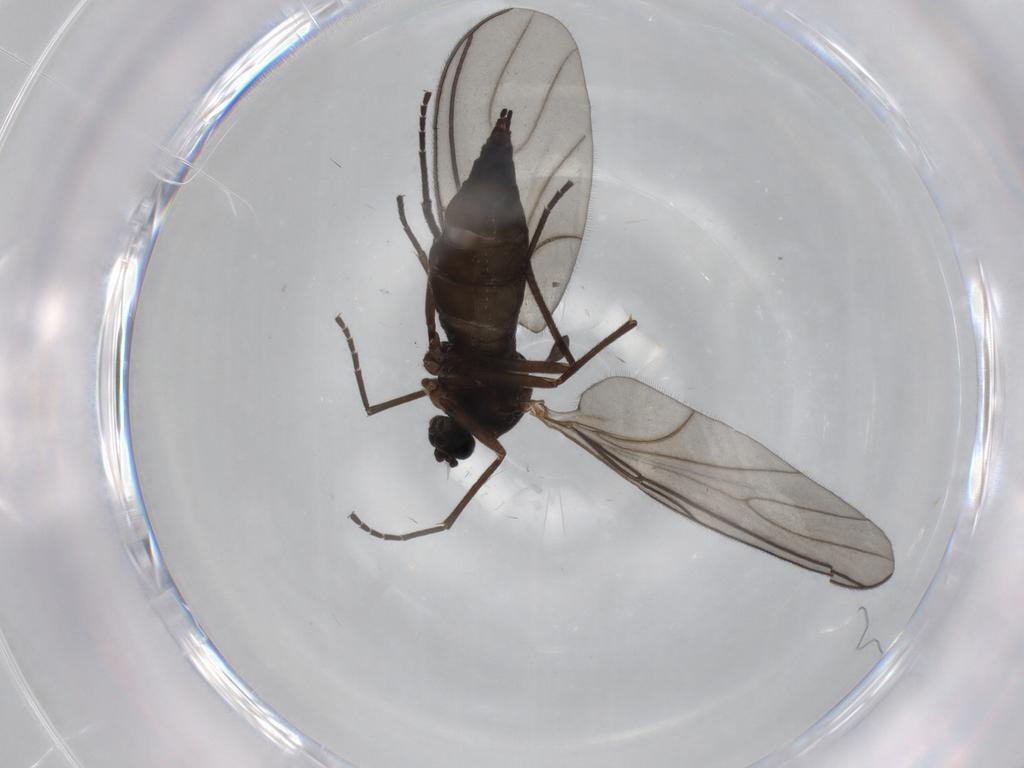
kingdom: Animalia
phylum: Arthropoda
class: Insecta
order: Diptera
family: Sciaridae
